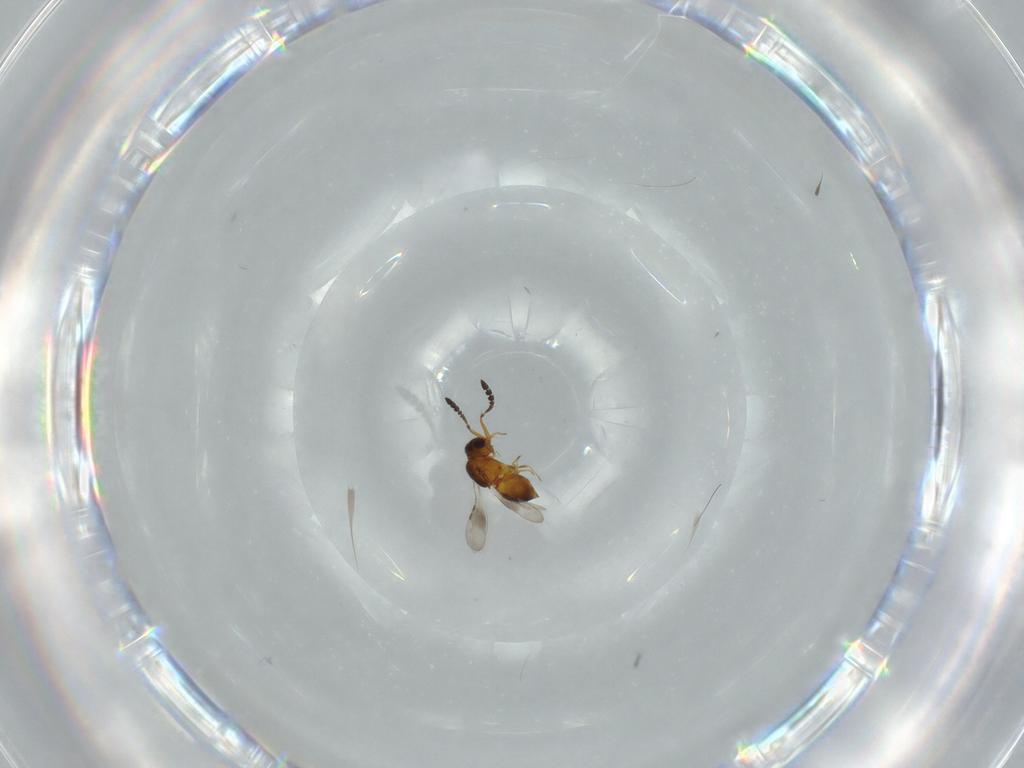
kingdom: Animalia
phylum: Arthropoda
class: Insecta
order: Hymenoptera
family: Ceraphronidae
